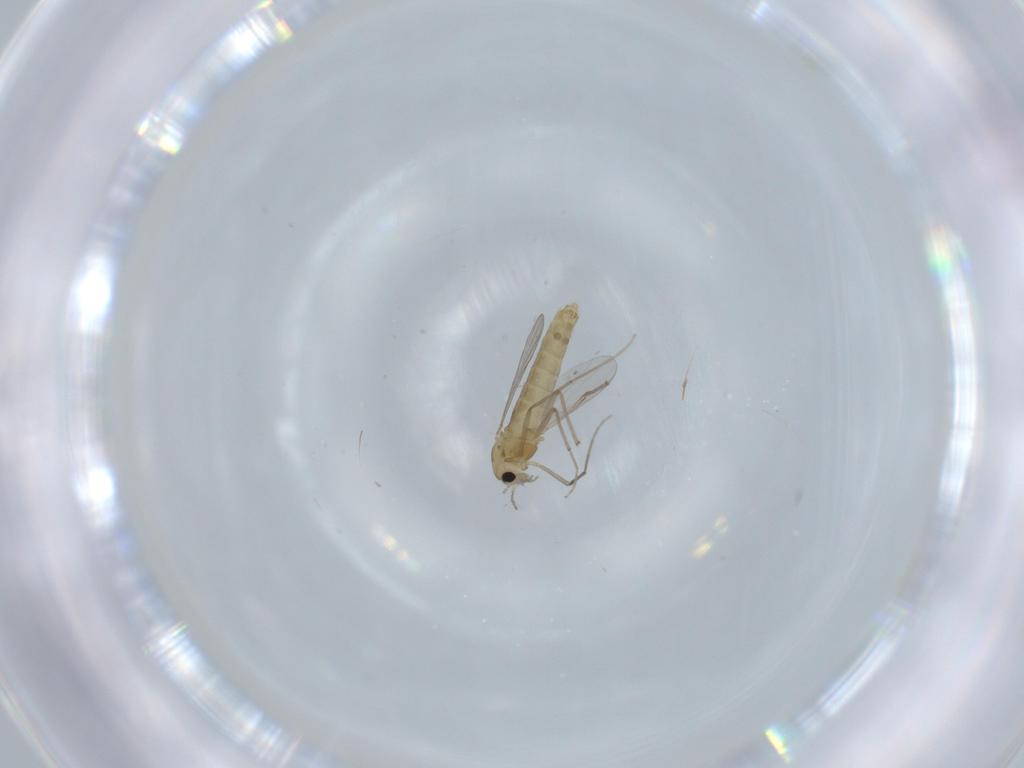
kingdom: Animalia
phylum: Arthropoda
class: Insecta
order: Diptera
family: Chironomidae
